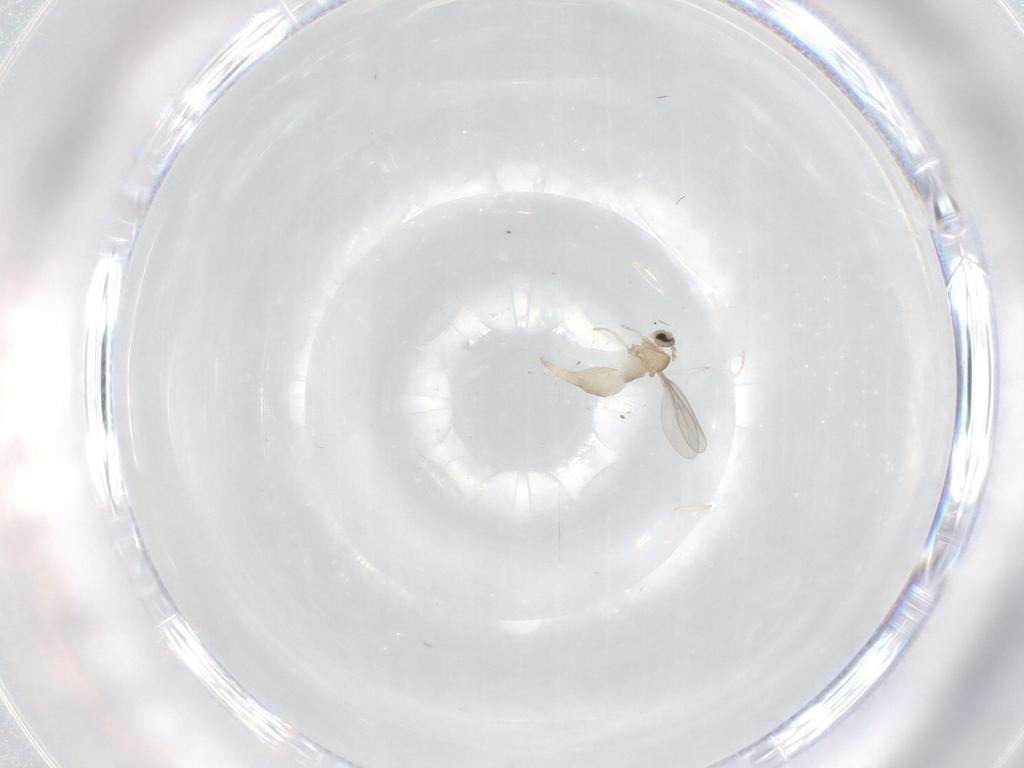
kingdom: Animalia
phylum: Arthropoda
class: Insecta
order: Diptera
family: Cecidomyiidae
